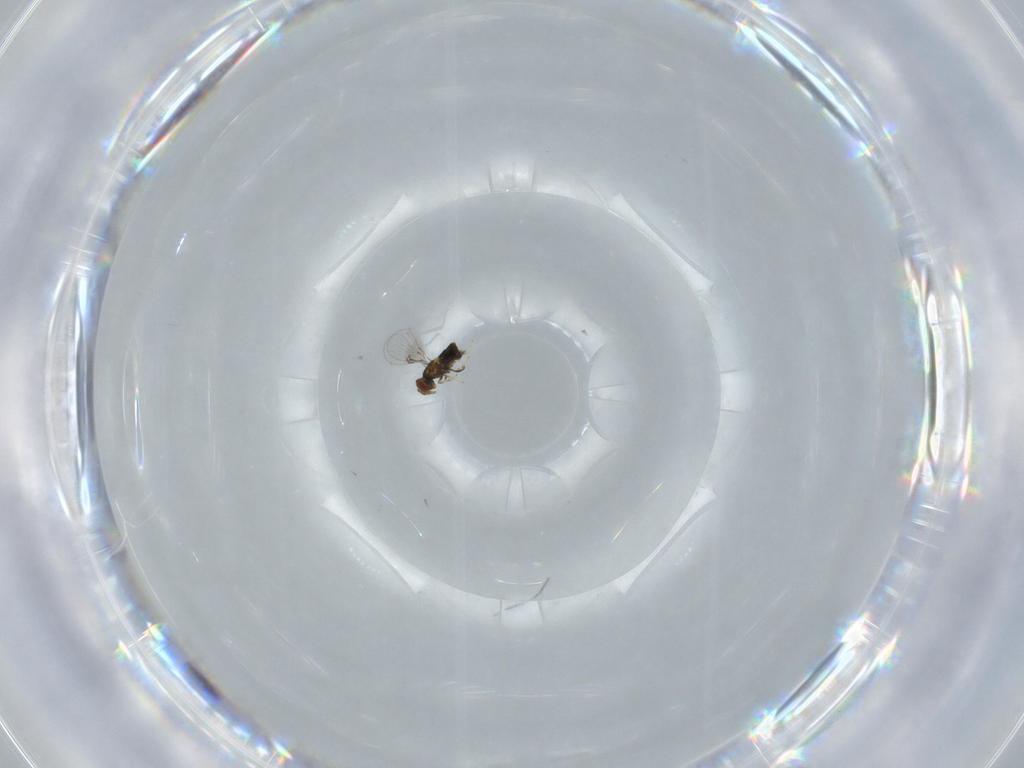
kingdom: Animalia
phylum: Arthropoda
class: Insecta
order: Hymenoptera
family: Trichogrammatidae
